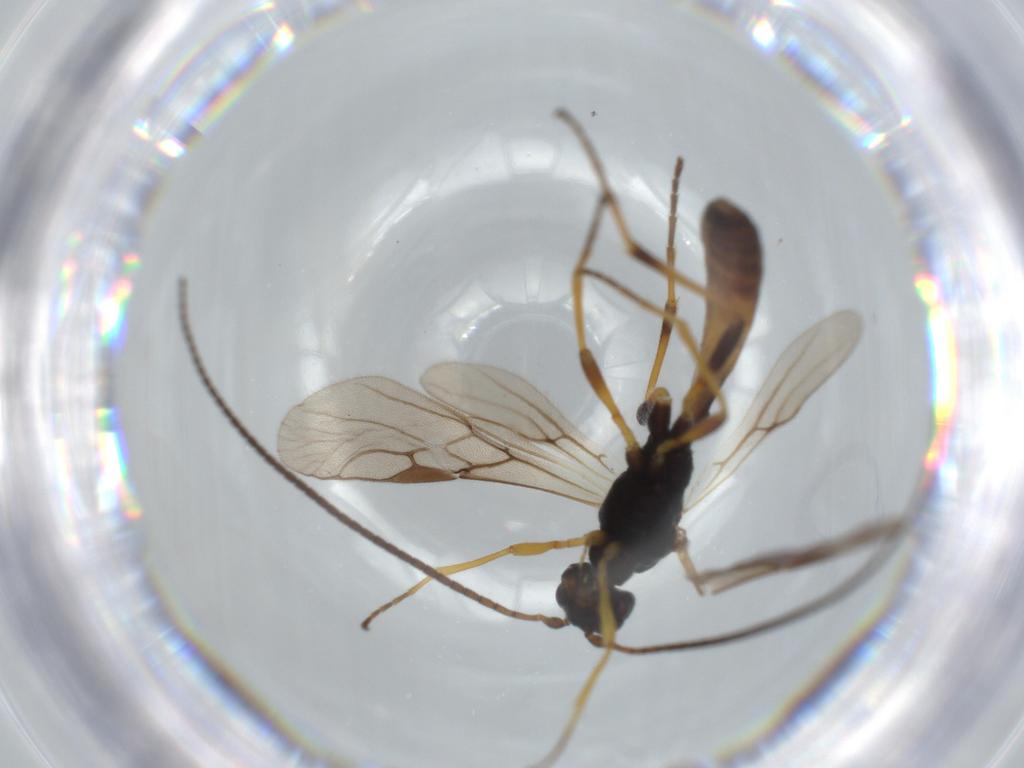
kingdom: Animalia
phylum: Arthropoda
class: Insecta
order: Hymenoptera
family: Braconidae
